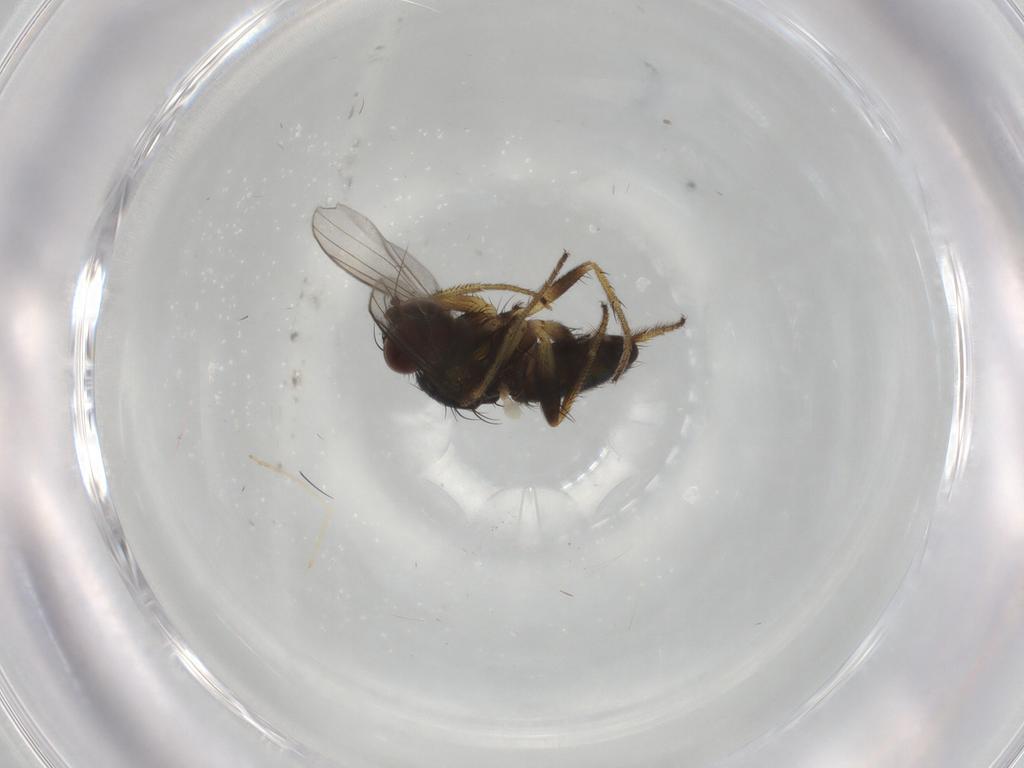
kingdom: Animalia
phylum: Arthropoda
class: Insecta
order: Diptera
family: Dolichopodidae
